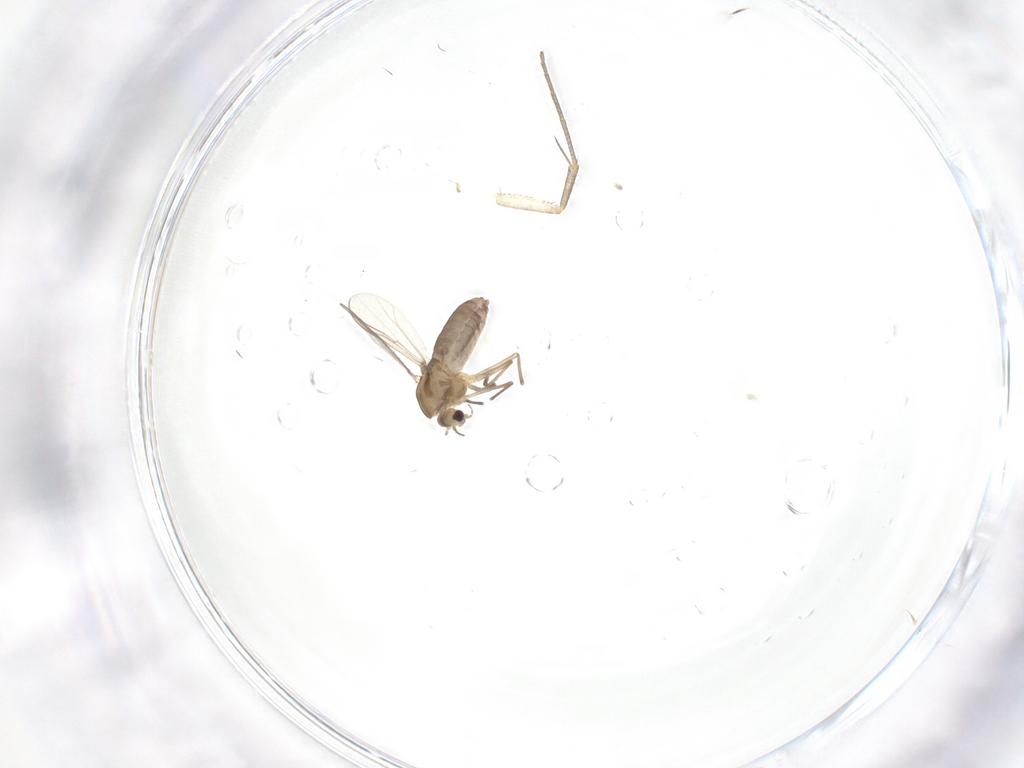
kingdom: Animalia
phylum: Arthropoda
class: Insecta
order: Diptera
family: Mycetophilidae
